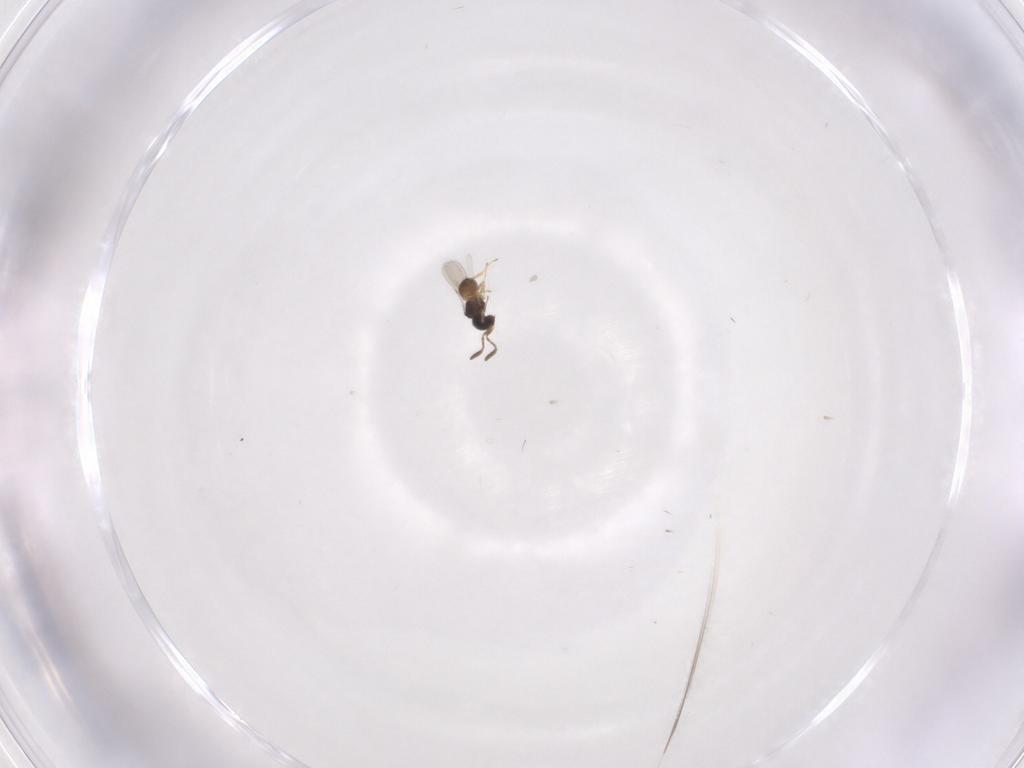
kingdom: Animalia
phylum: Arthropoda
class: Insecta
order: Hymenoptera
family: Scelionidae
